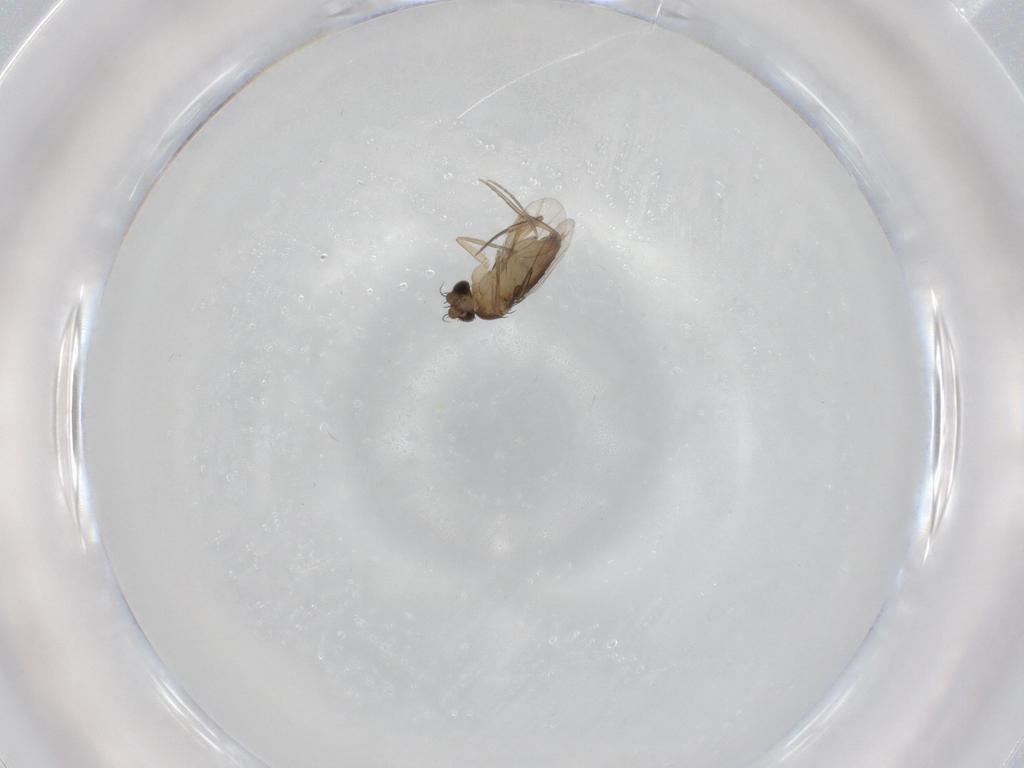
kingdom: Animalia
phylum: Arthropoda
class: Insecta
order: Diptera
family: Phoridae
